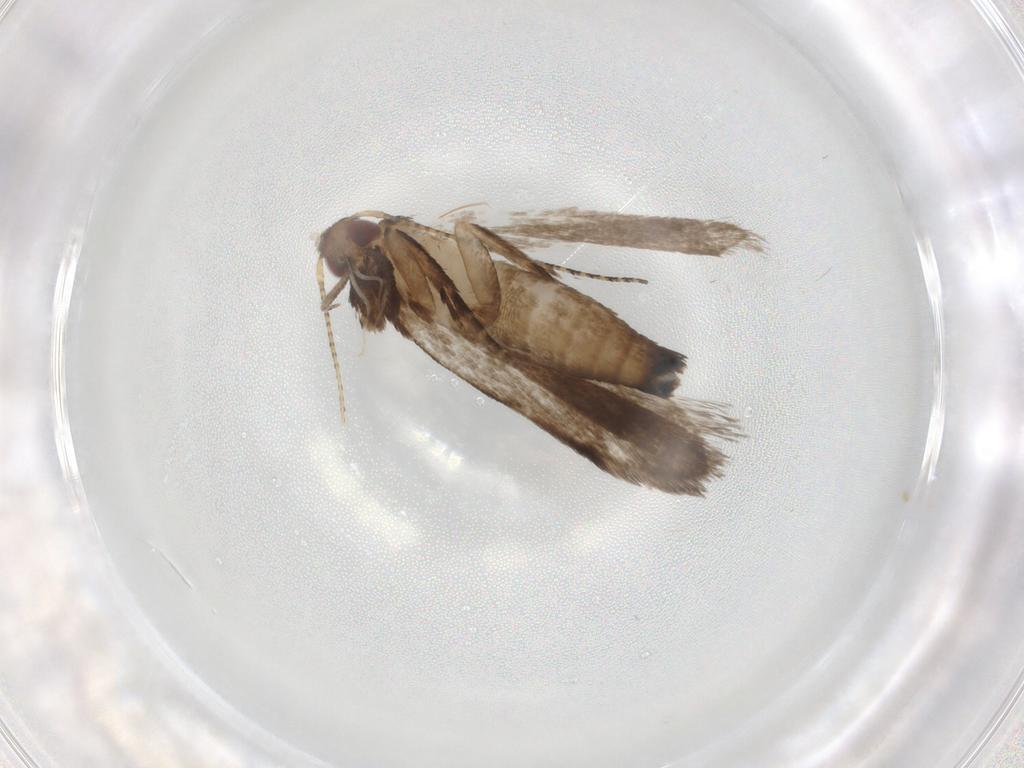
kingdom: Animalia
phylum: Arthropoda
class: Insecta
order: Lepidoptera
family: Gelechiidae
